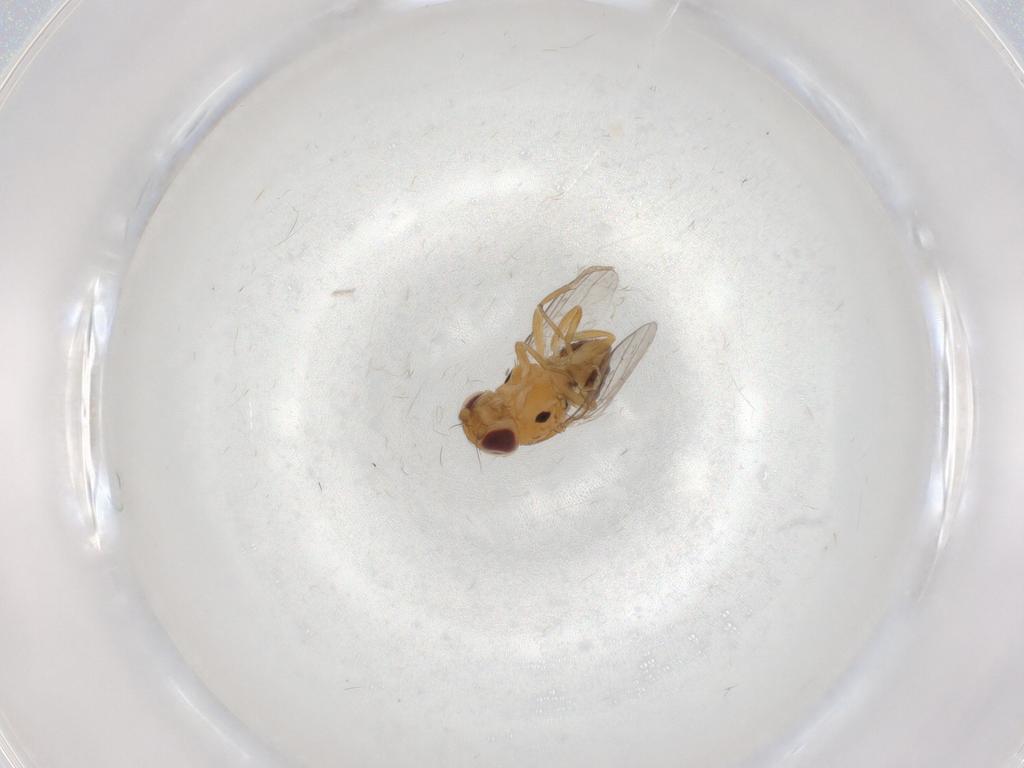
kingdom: Animalia
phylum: Arthropoda
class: Insecta
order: Diptera
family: Chloropidae
